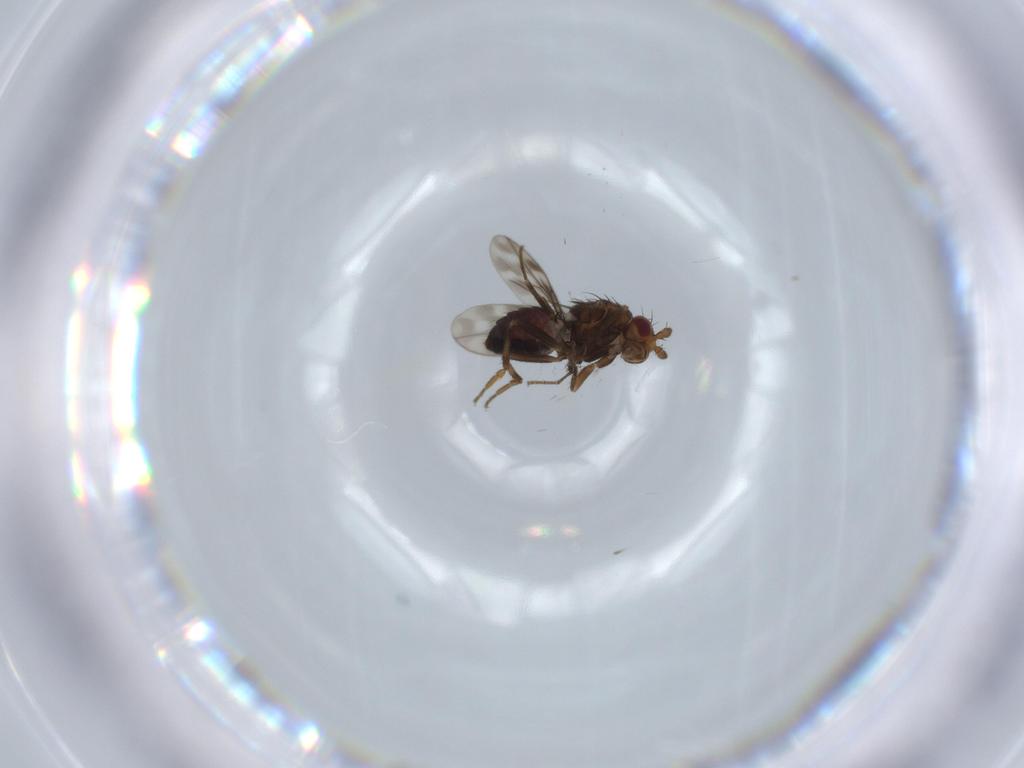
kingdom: Animalia
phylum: Arthropoda
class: Insecta
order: Diptera
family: Sphaeroceridae
